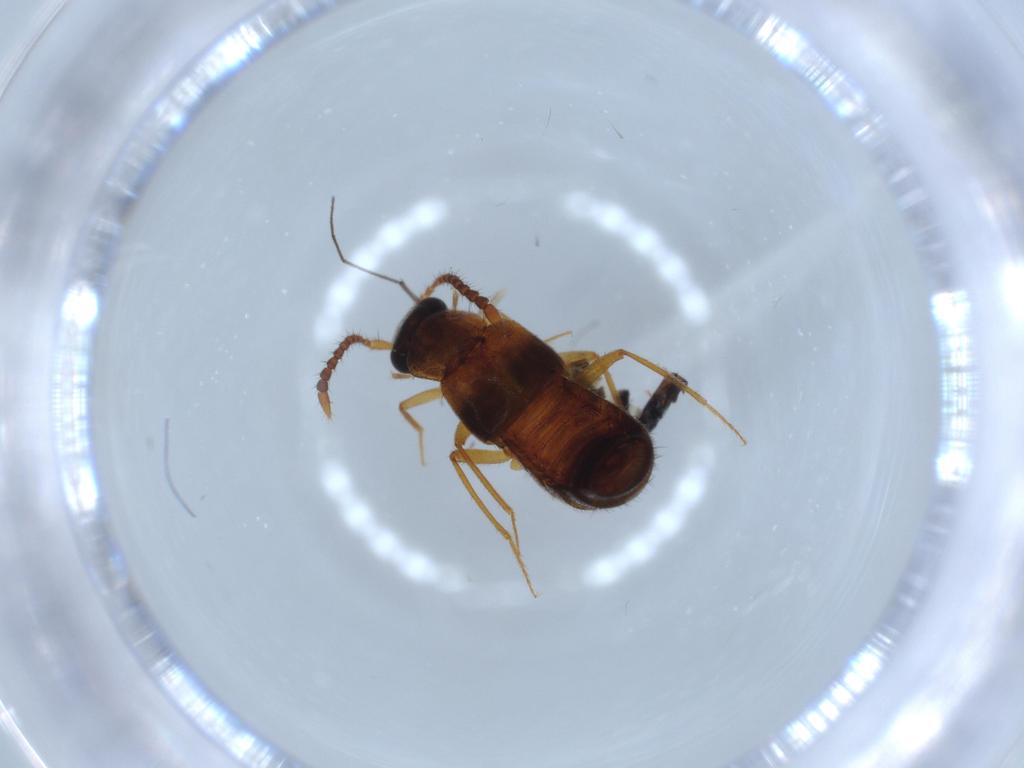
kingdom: Animalia
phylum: Arthropoda
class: Insecta
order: Coleoptera
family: Staphylinidae
